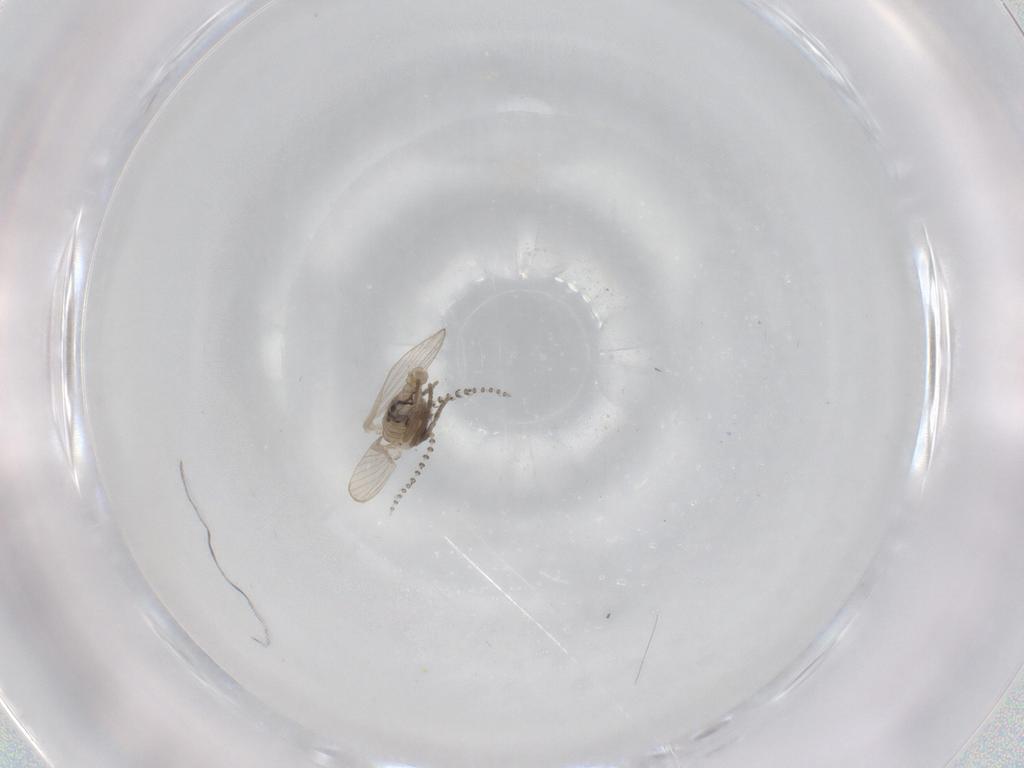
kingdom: Animalia
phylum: Arthropoda
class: Insecta
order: Diptera
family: Psychodidae
